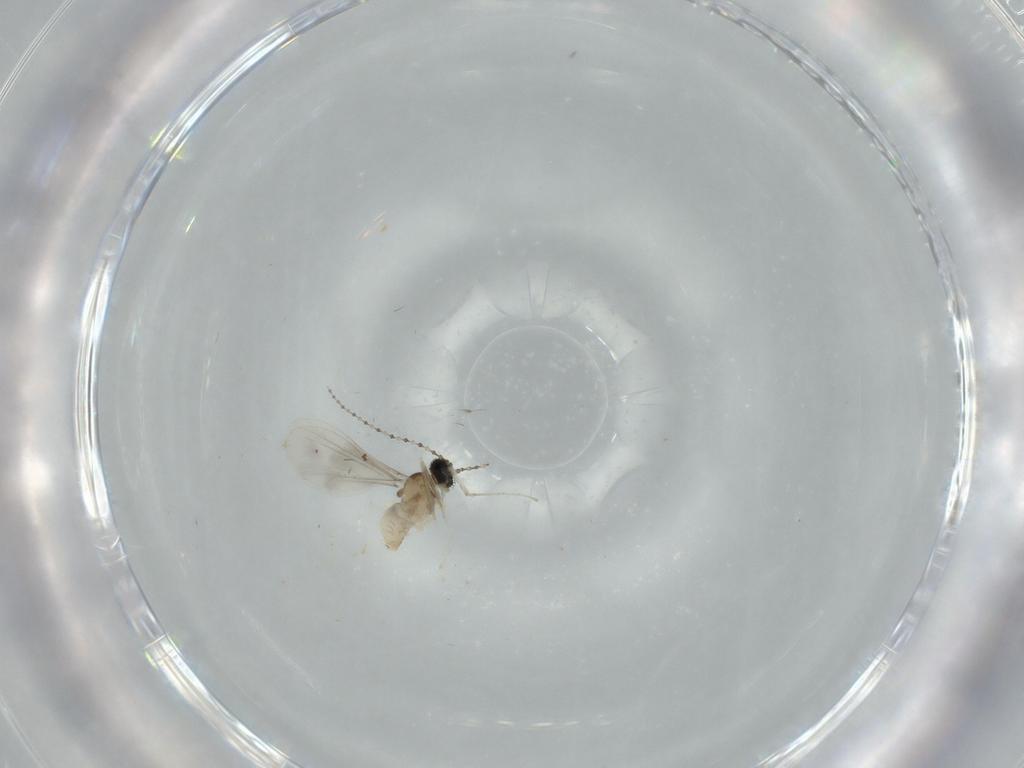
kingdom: Animalia
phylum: Arthropoda
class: Insecta
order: Diptera
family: Cecidomyiidae
